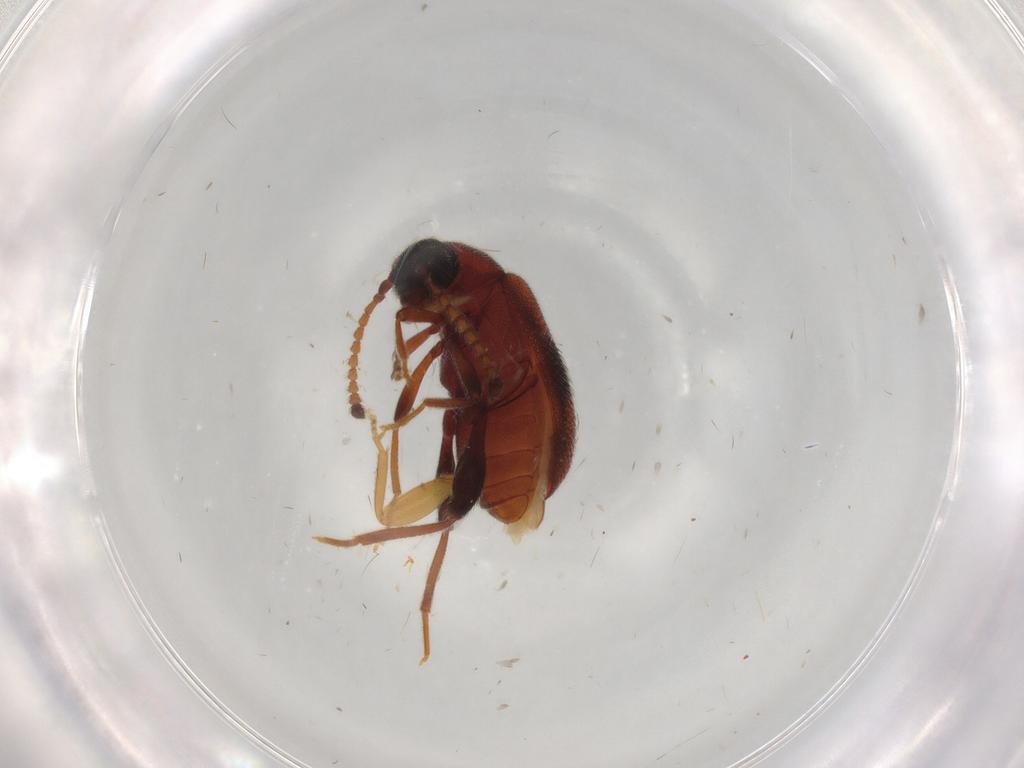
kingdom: Animalia
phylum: Arthropoda
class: Insecta
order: Coleoptera
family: Aderidae
